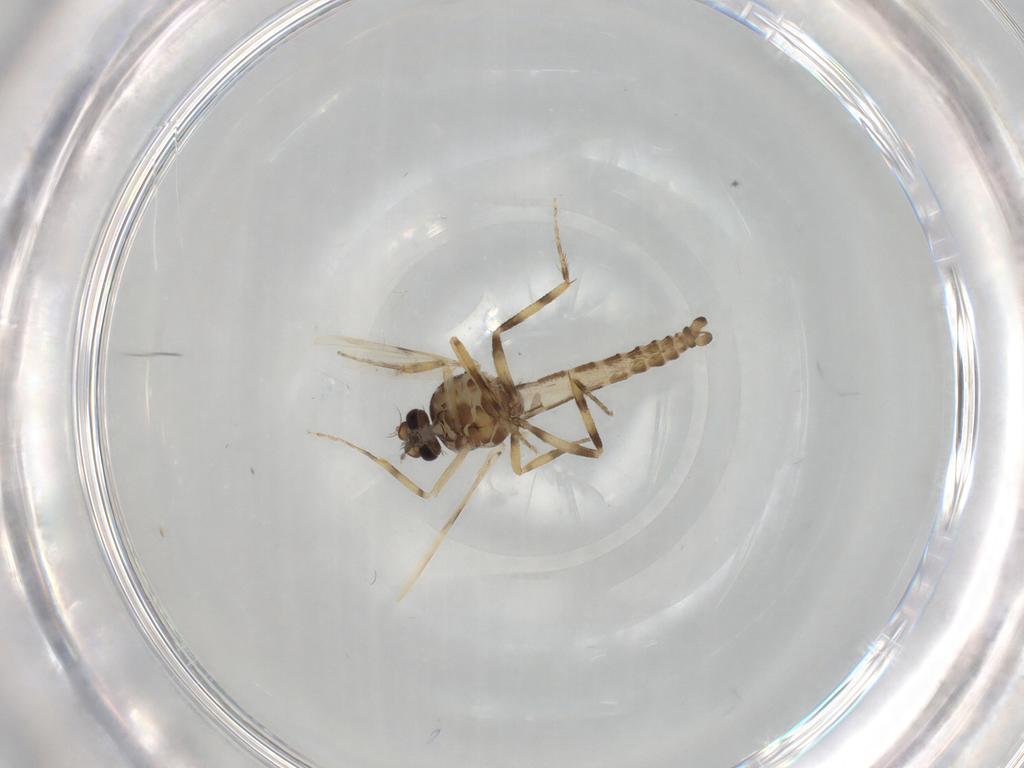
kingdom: Animalia
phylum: Arthropoda
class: Insecta
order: Diptera
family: Ceratopogonidae
